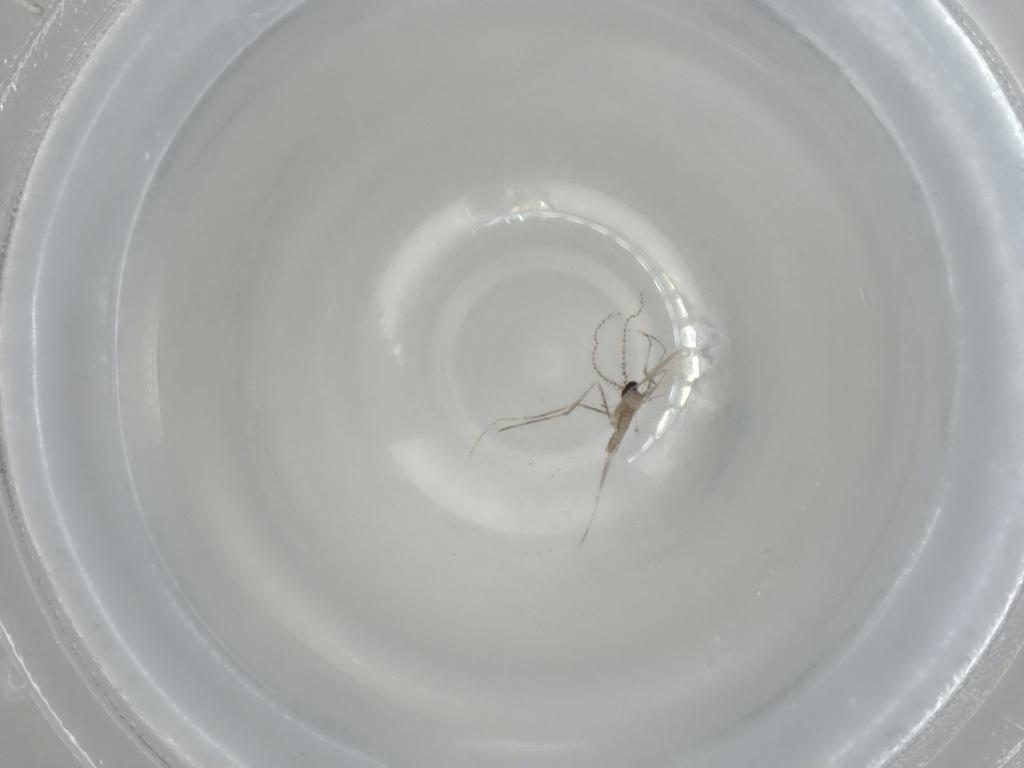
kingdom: Animalia
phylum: Arthropoda
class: Insecta
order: Diptera
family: Cecidomyiidae
